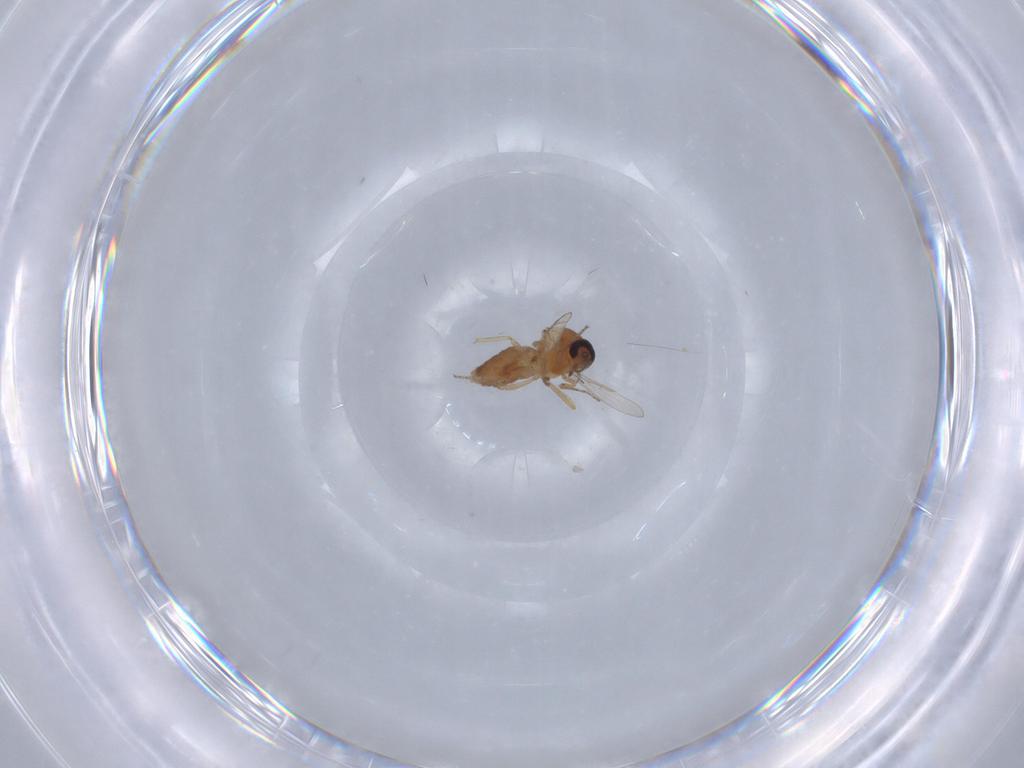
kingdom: Animalia
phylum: Arthropoda
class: Insecta
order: Diptera
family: Ceratopogonidae
